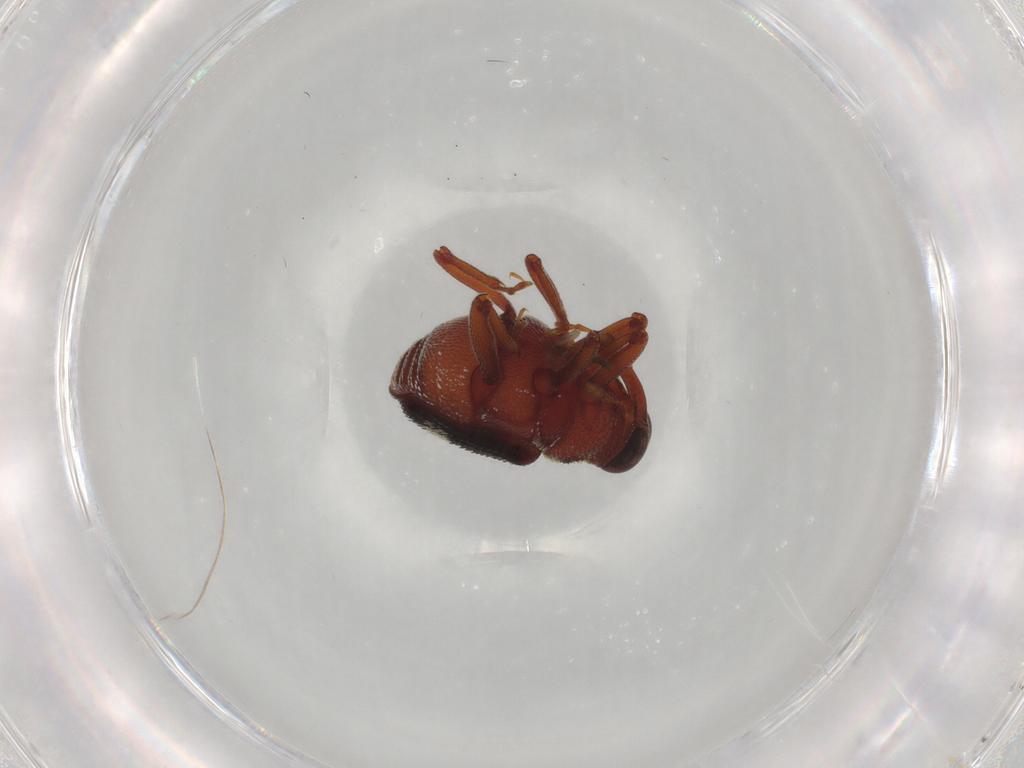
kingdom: Animalia
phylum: Arthropoda
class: Insecta
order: Coleoptera
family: Curculionidae
